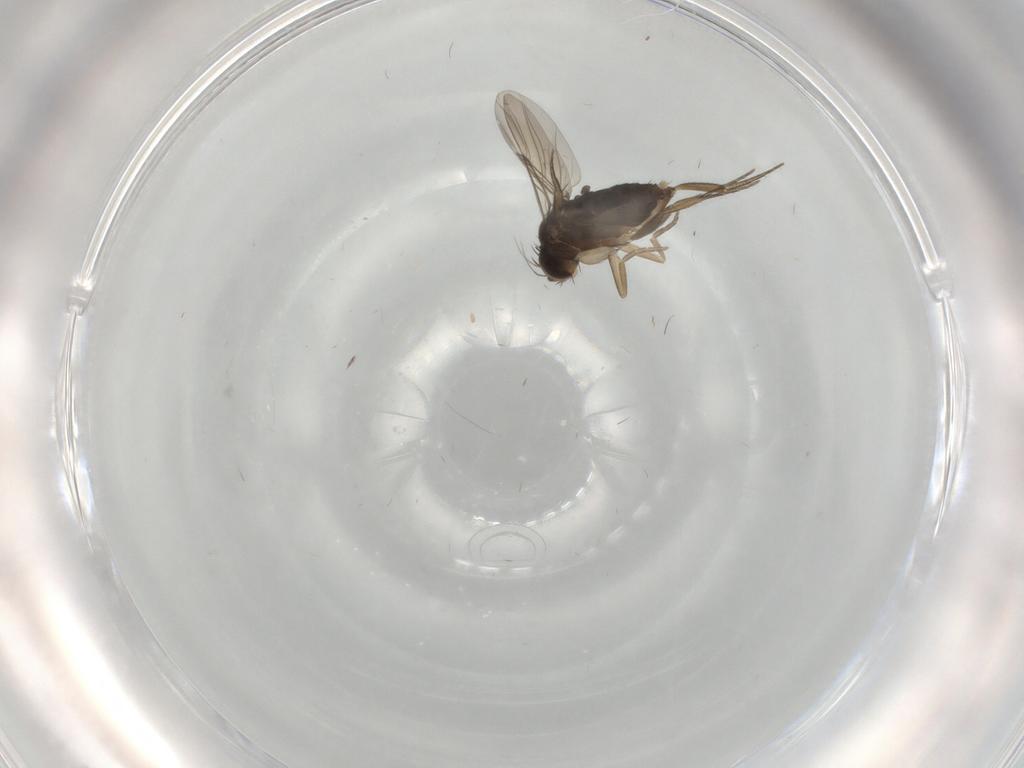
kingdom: Animalia
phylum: Arthropoda
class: Insecta
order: Diptera
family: Phoridae
